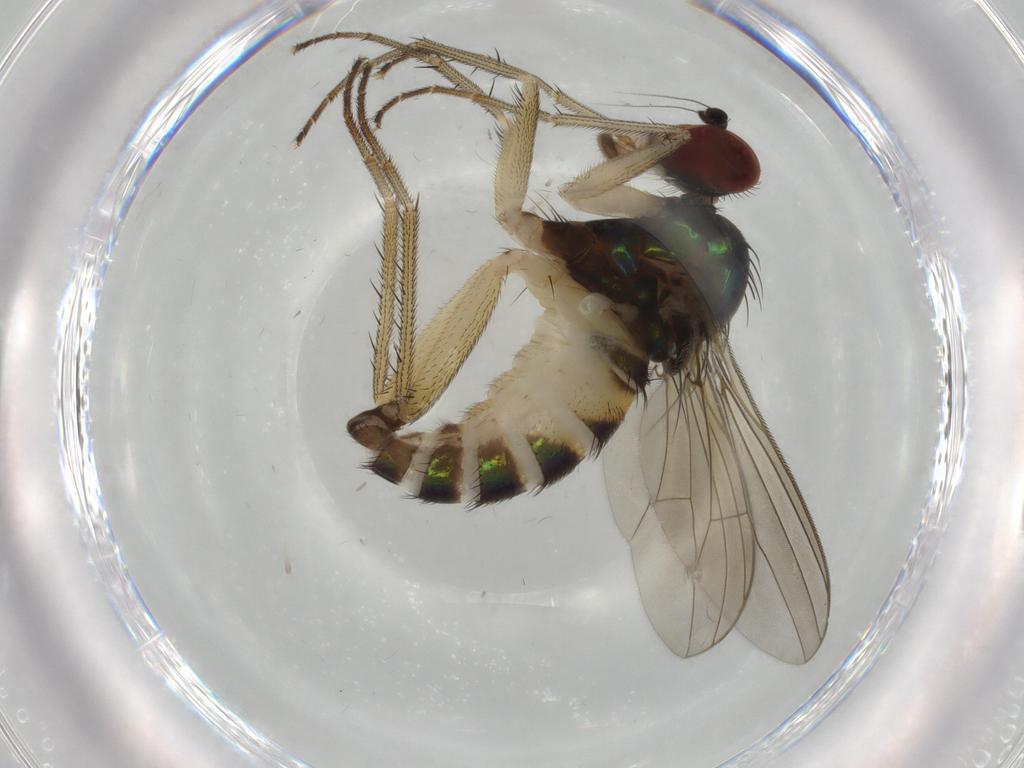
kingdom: Animalia
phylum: Arthropoda
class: Insecta
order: Diptera
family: Dolichopodidae
